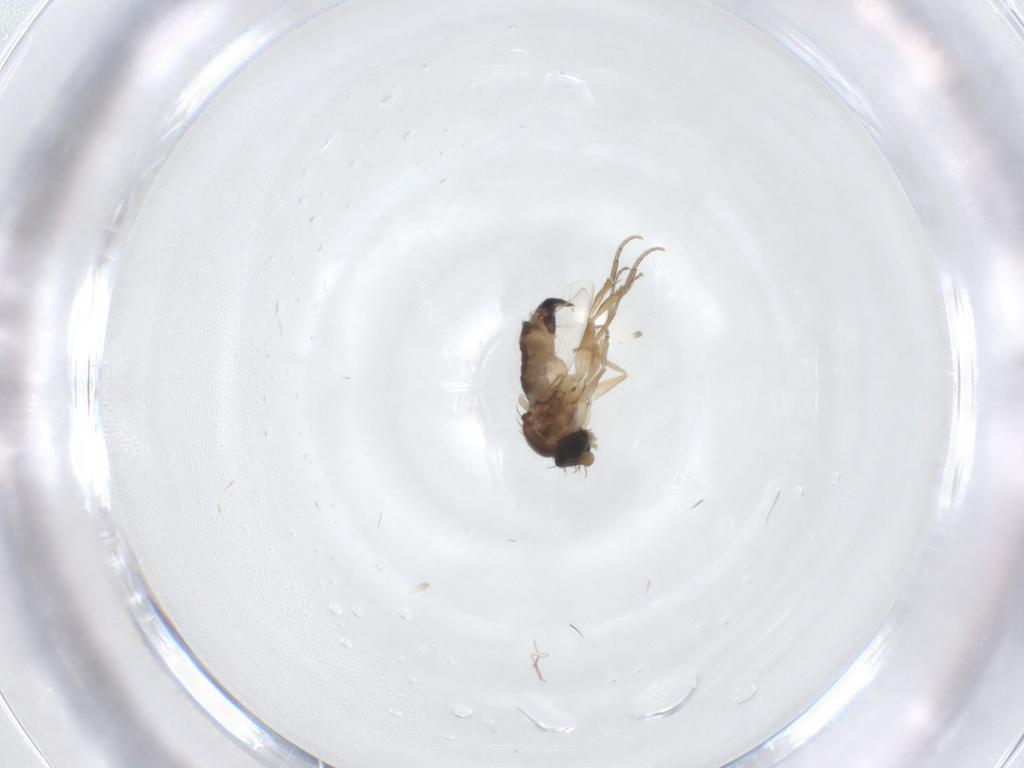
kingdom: Animalia
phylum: Arthropoda
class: Insecta
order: Diptera
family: Phoridae
